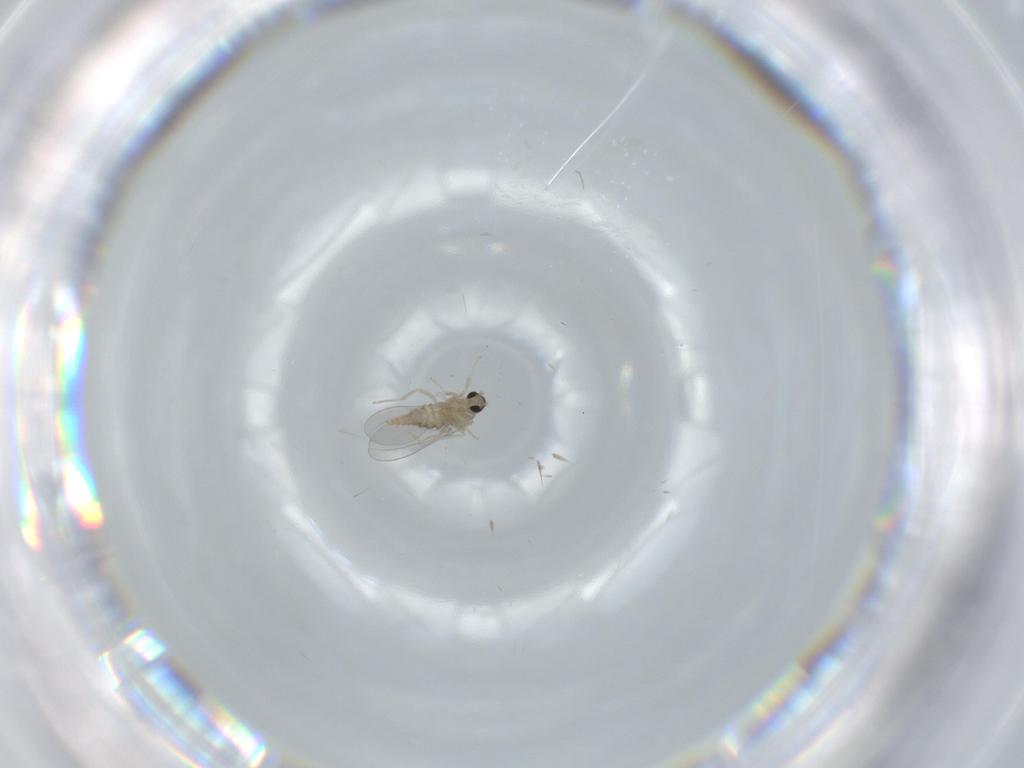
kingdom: Animalia
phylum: Arthropoda
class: Insecta
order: Diptera
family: Cecidomyiidae
